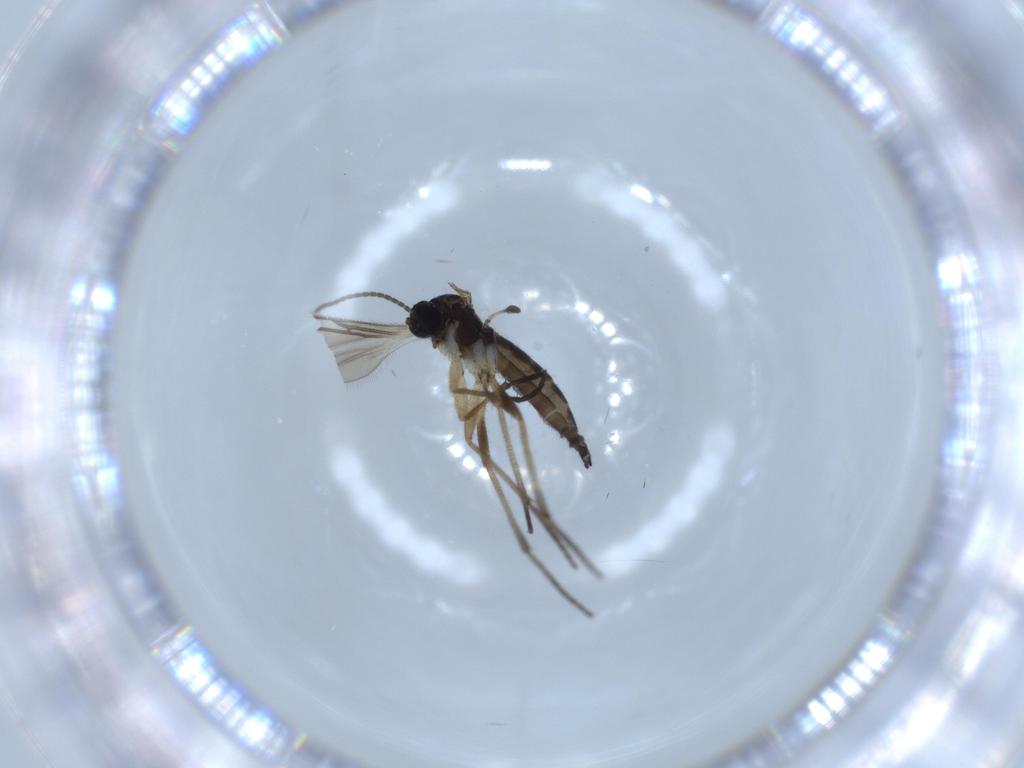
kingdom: Animalia
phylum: Arthropoda
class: Insecta
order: Diptera
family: Sciaridae
